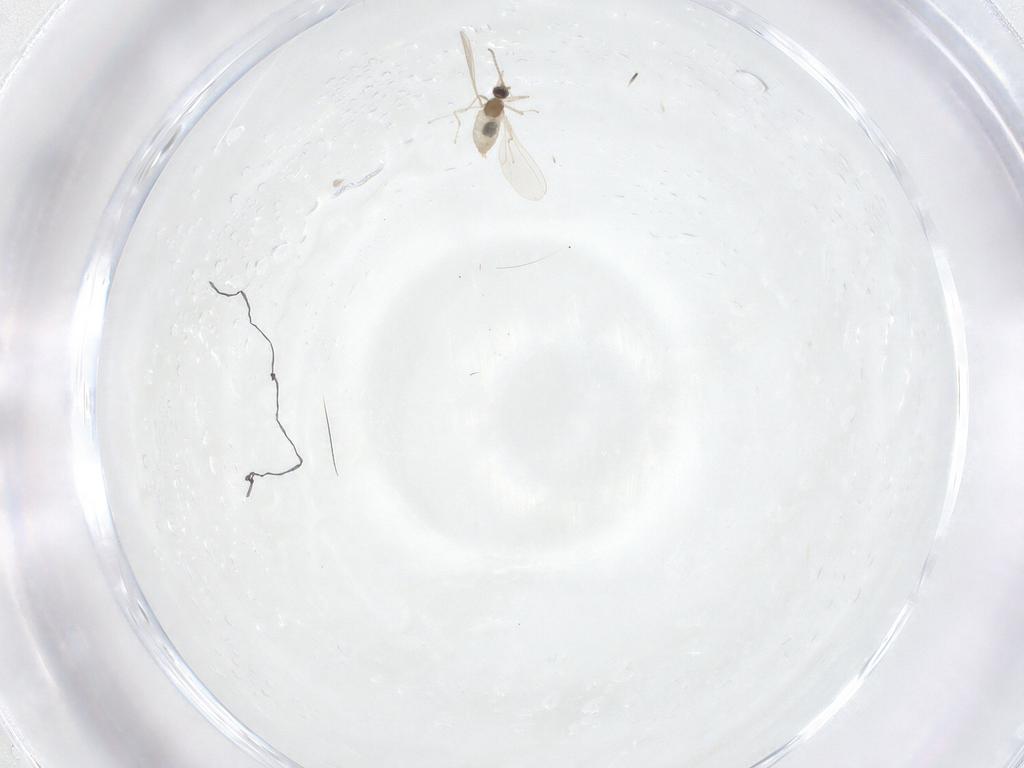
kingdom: Animalia
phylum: Arthropoda
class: Insecta
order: Diptera
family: Cecidomyiidae
